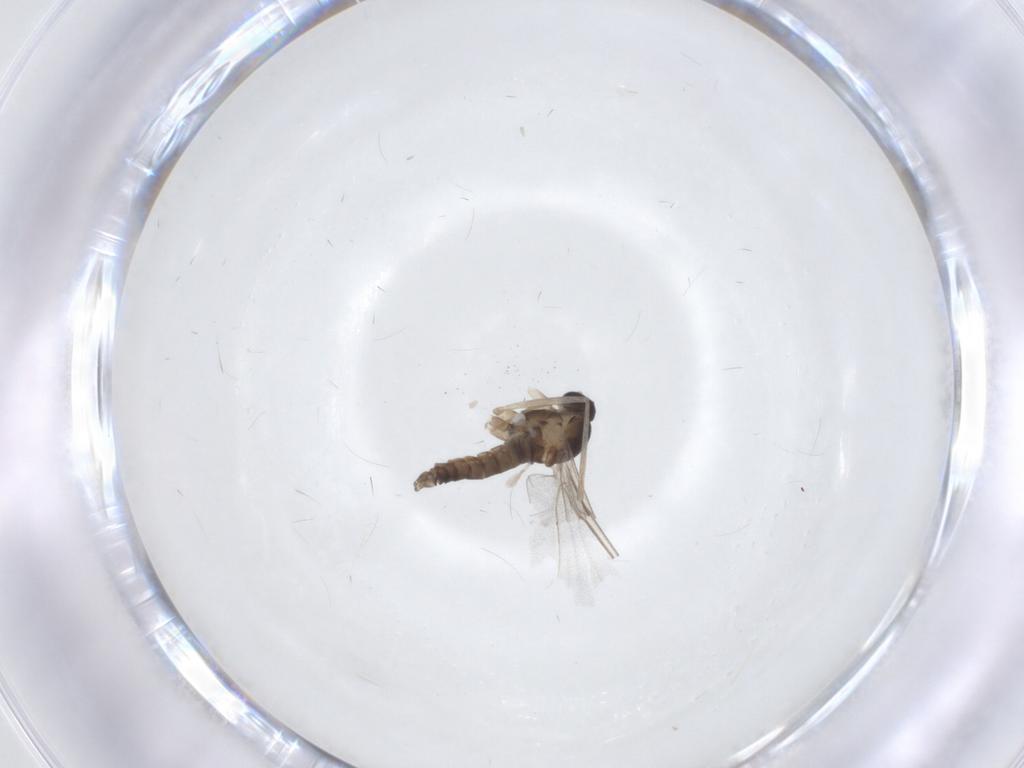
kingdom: Animalia
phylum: Arthropoda
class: Insecta
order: Diptera
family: Cecidomyiidae
